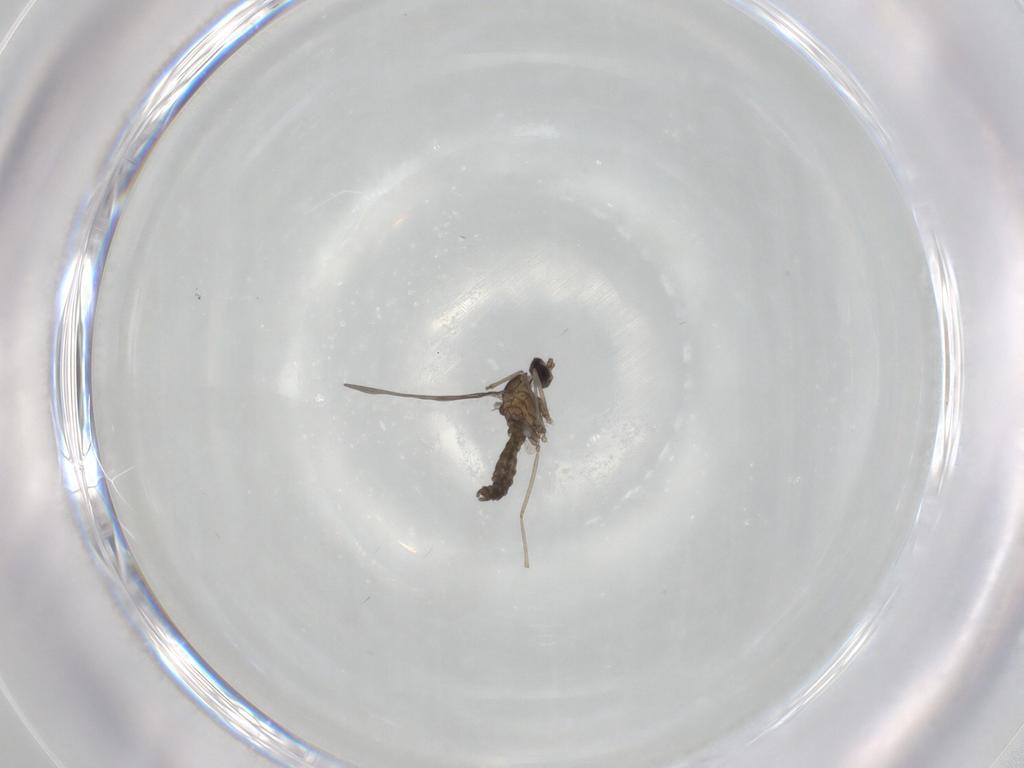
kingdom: Animalia
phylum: Arthropoda
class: Insecta
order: Diptera
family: Cecidomyiidae
